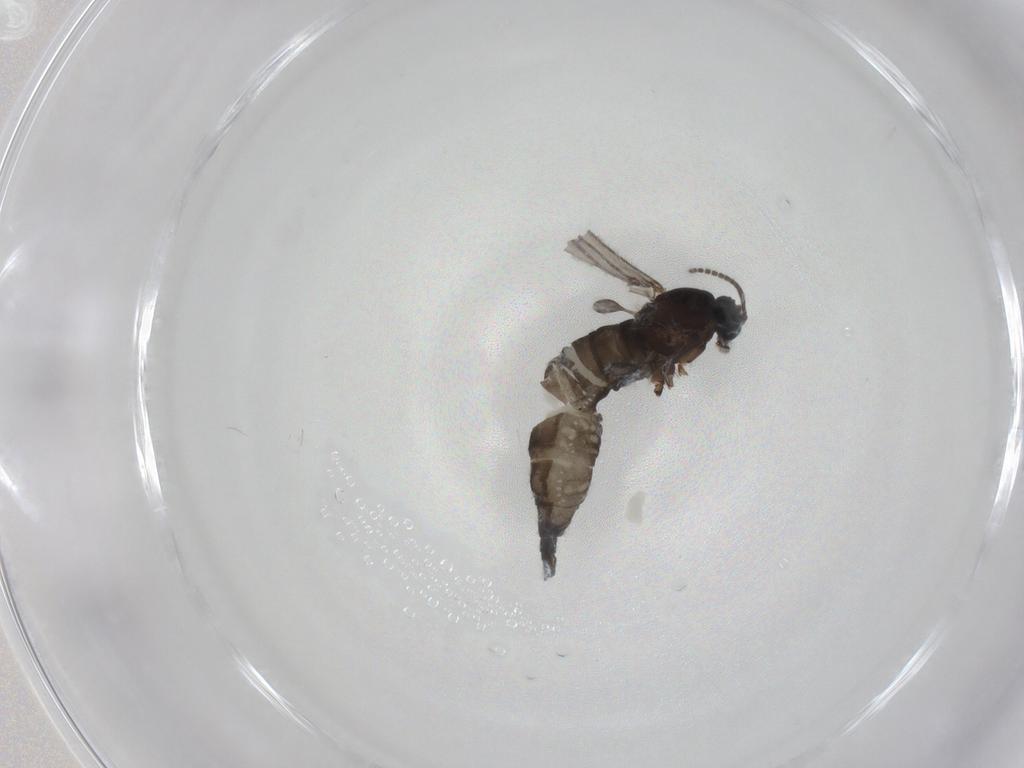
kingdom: Animalia
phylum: Arthropoda
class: Insecta
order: Diptera
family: Sciaridae
